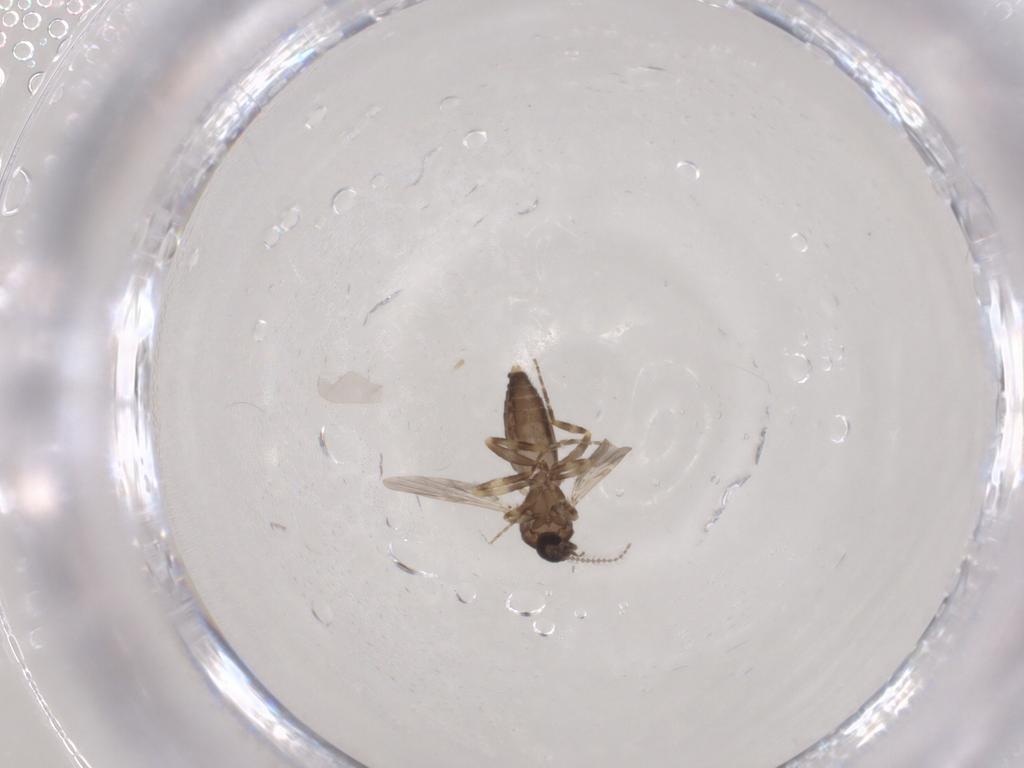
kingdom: Animalia
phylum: Arthropoda
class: Insecta
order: Diptera
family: Ceratopogonidae
